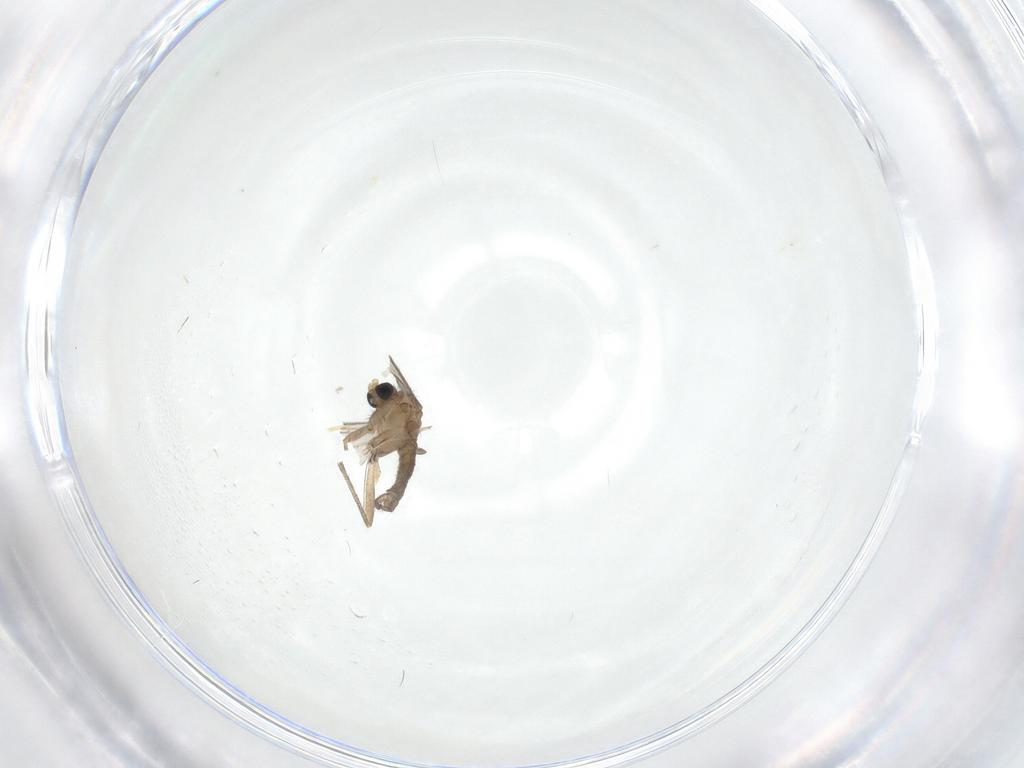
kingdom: Animalia
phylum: Arthropoda
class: Insecta
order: Diptera
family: Sciaridae
